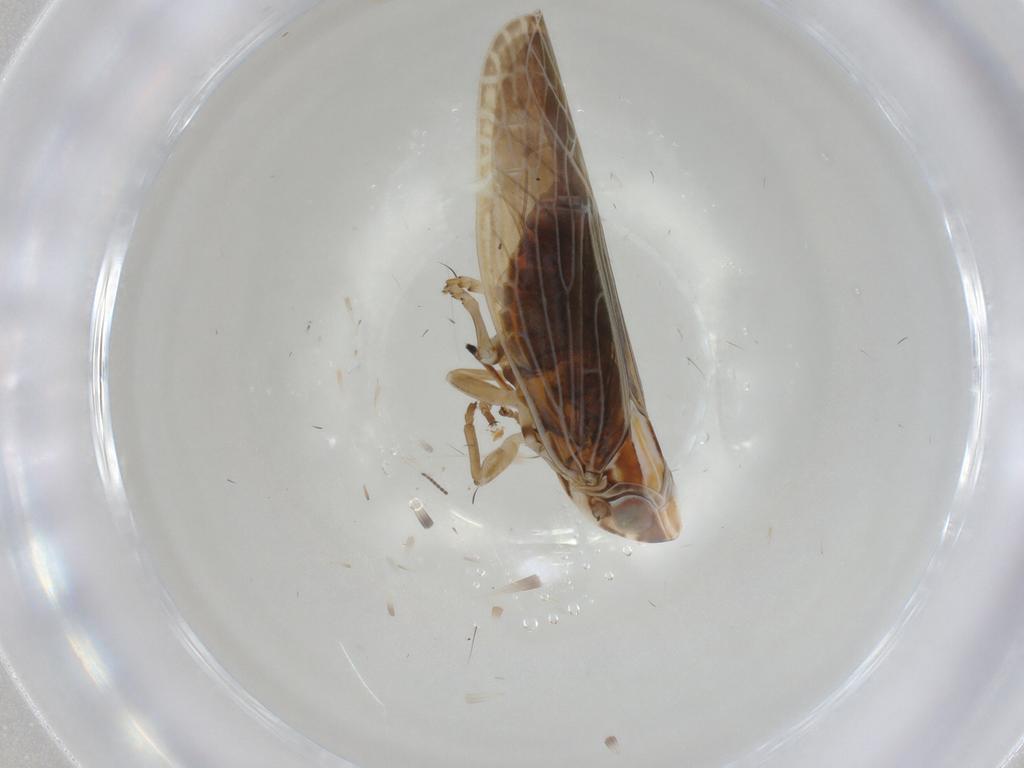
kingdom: Animalia
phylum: Arthropoda
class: Insecta
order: Hemiptera
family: Achilidae
